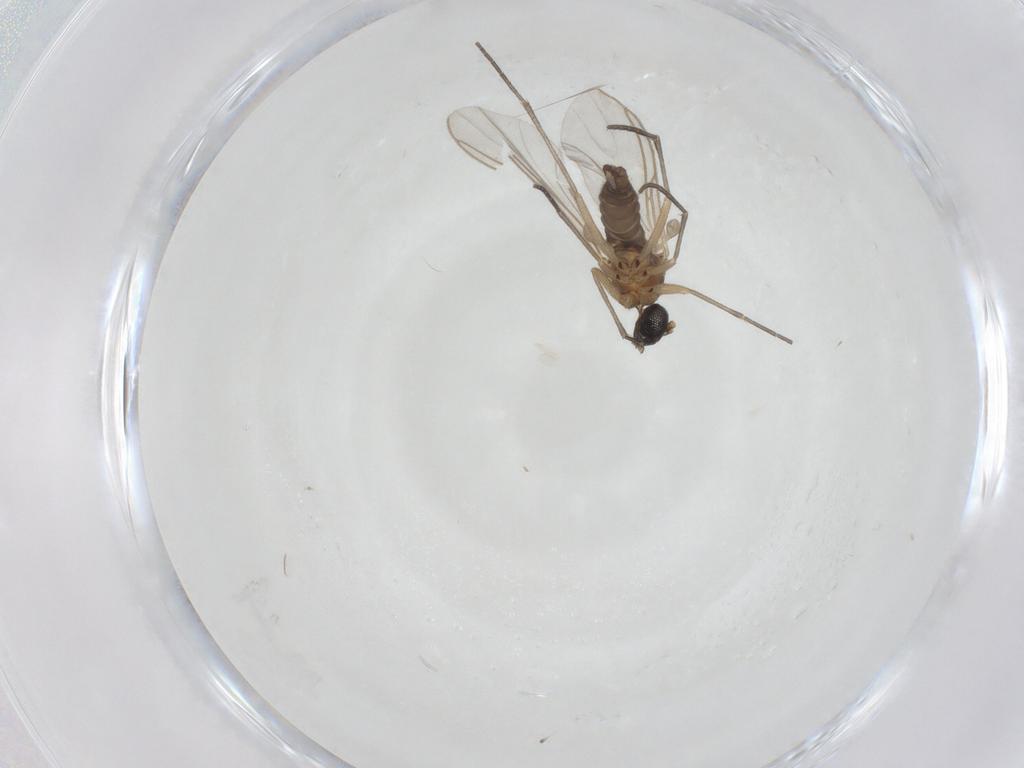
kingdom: Animalia
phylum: Arthropoda
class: Insecta
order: Diptera
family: Sciaridae
